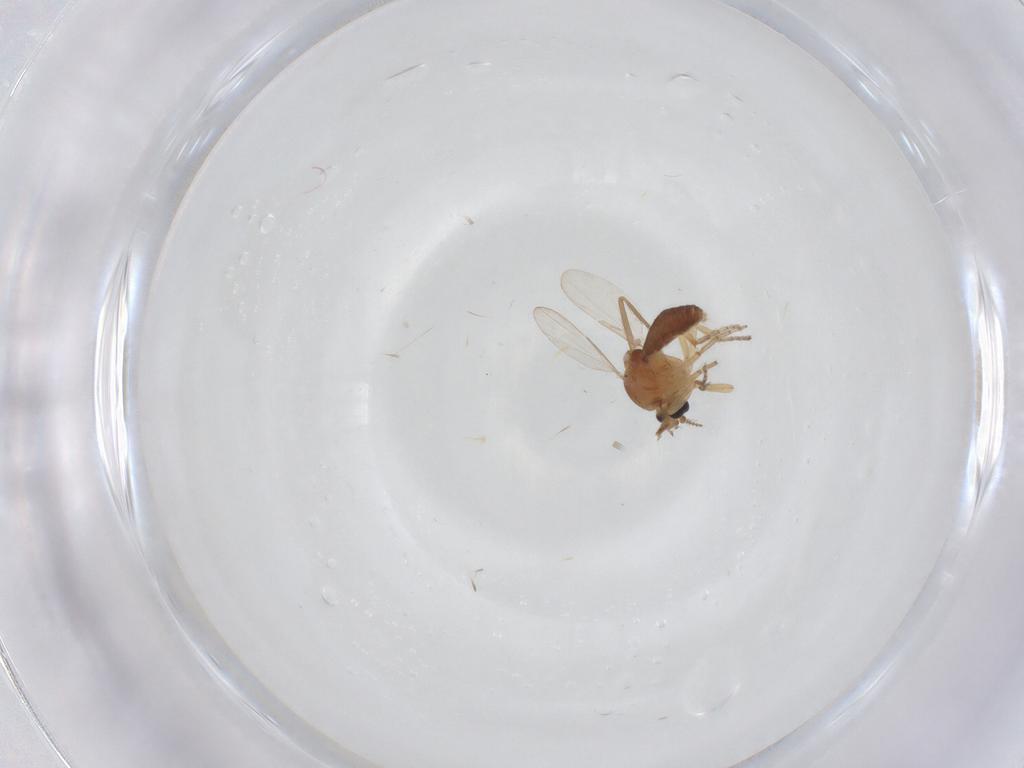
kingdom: Animalia
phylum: Arthropoda
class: Insecta
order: Diptera
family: Ceratopogonidae
